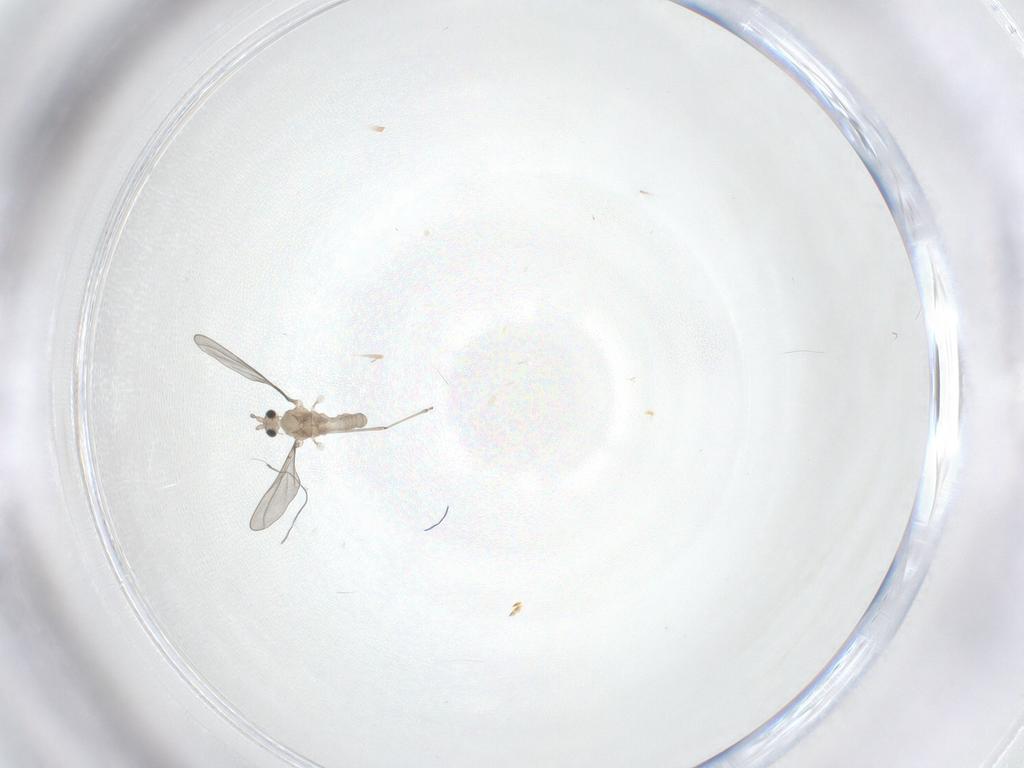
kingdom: Animalia
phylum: Arthropoda
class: Insecta
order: Diptera
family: Cecidomyiidae
